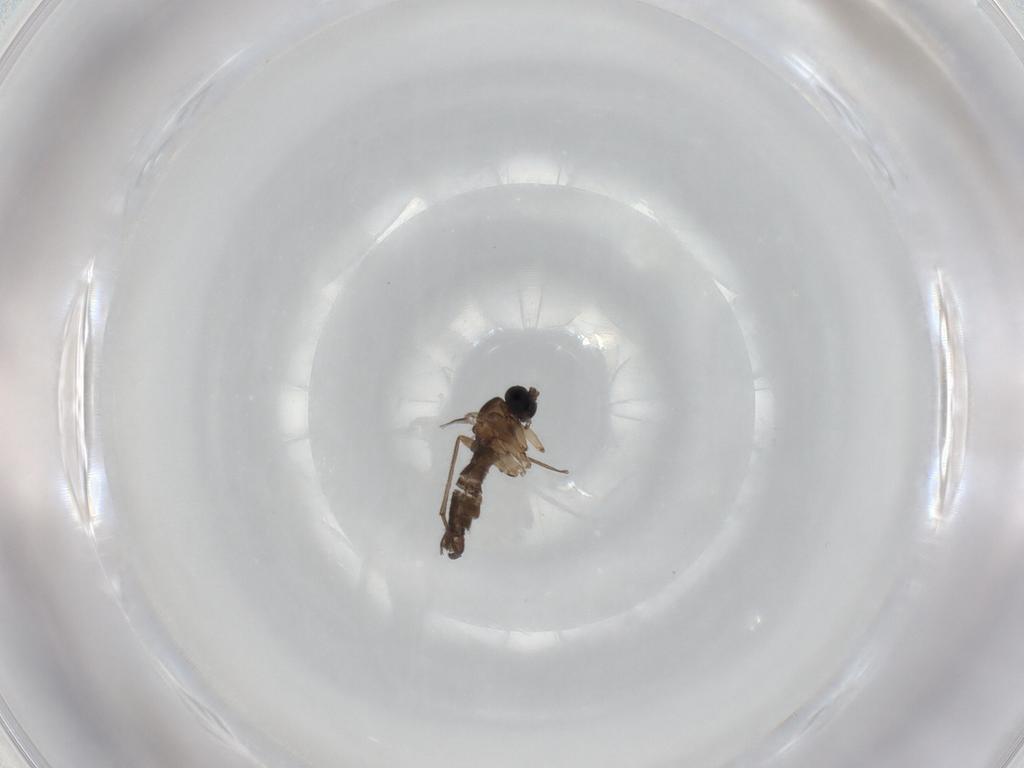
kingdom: Animalia
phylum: Arthropoda
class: Insecta
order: Diptera
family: Sciaridae
